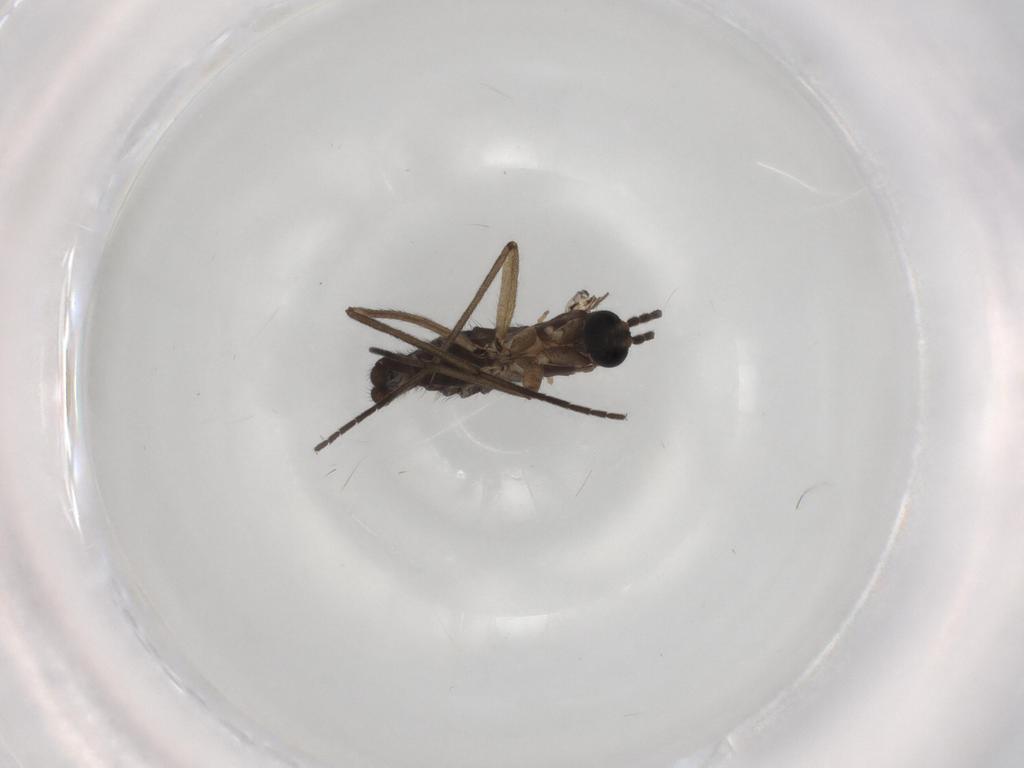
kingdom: Animalia
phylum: Arthropoda
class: Insecta
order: Diptera
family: Sciaridae
